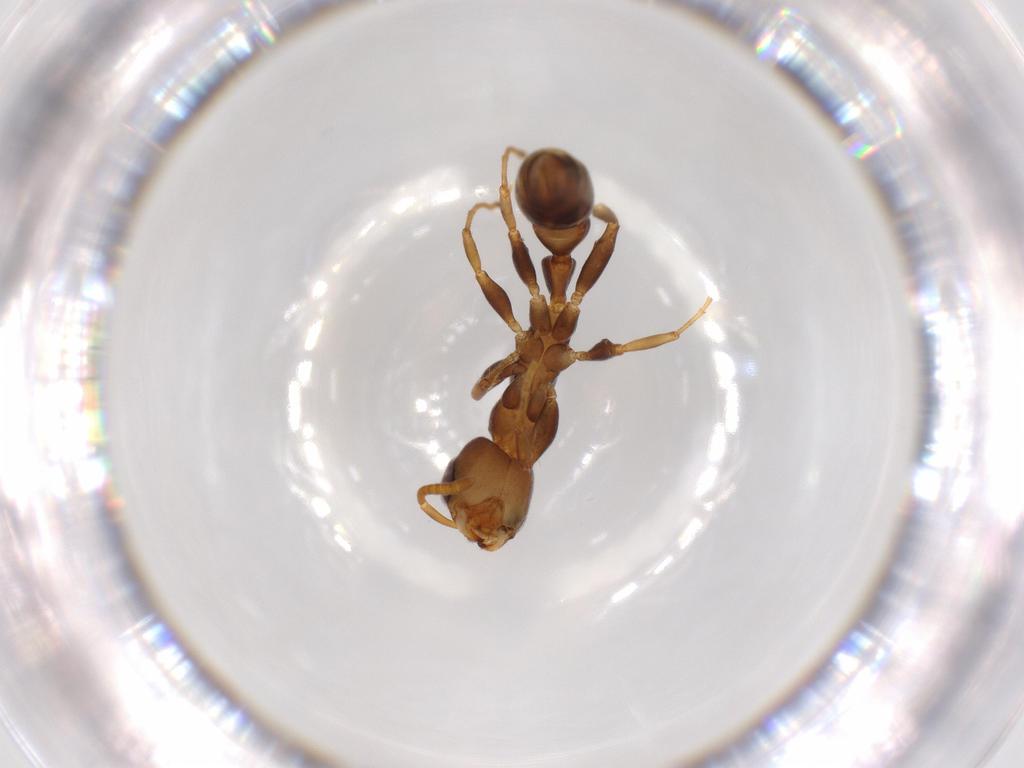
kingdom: Animalia
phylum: Arthropoda
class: Insecta
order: Hymenoptera
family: Formicidae
